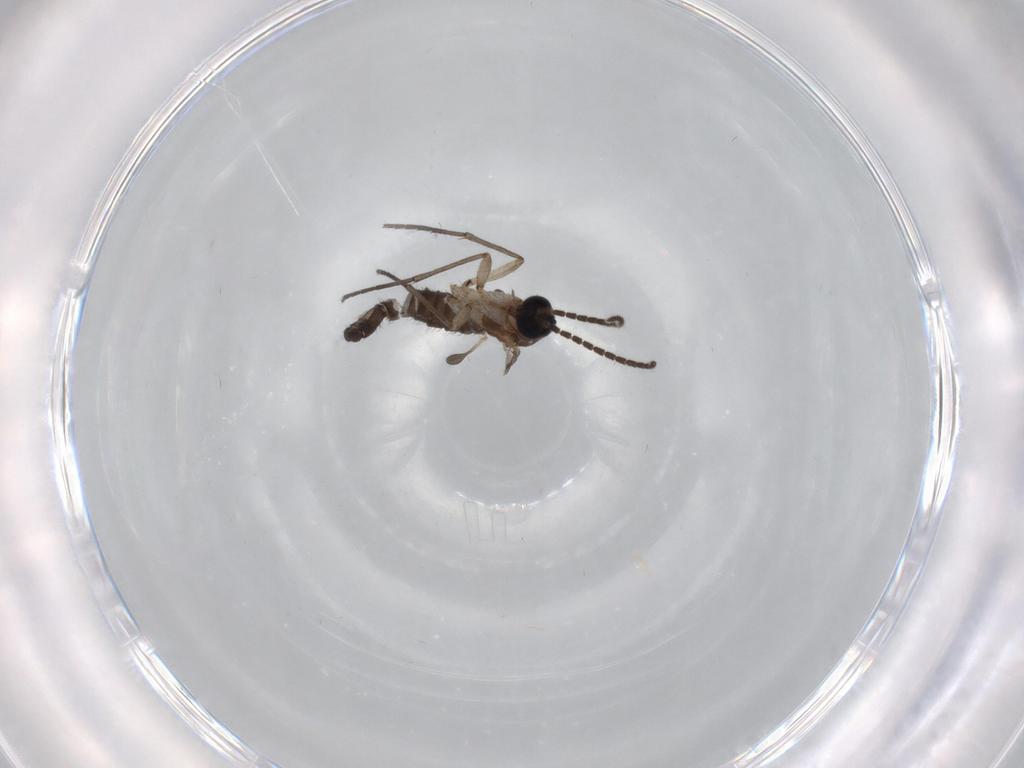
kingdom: Animalia
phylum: Arthropoda
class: Insecta
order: Diptera
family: Sciaridae
